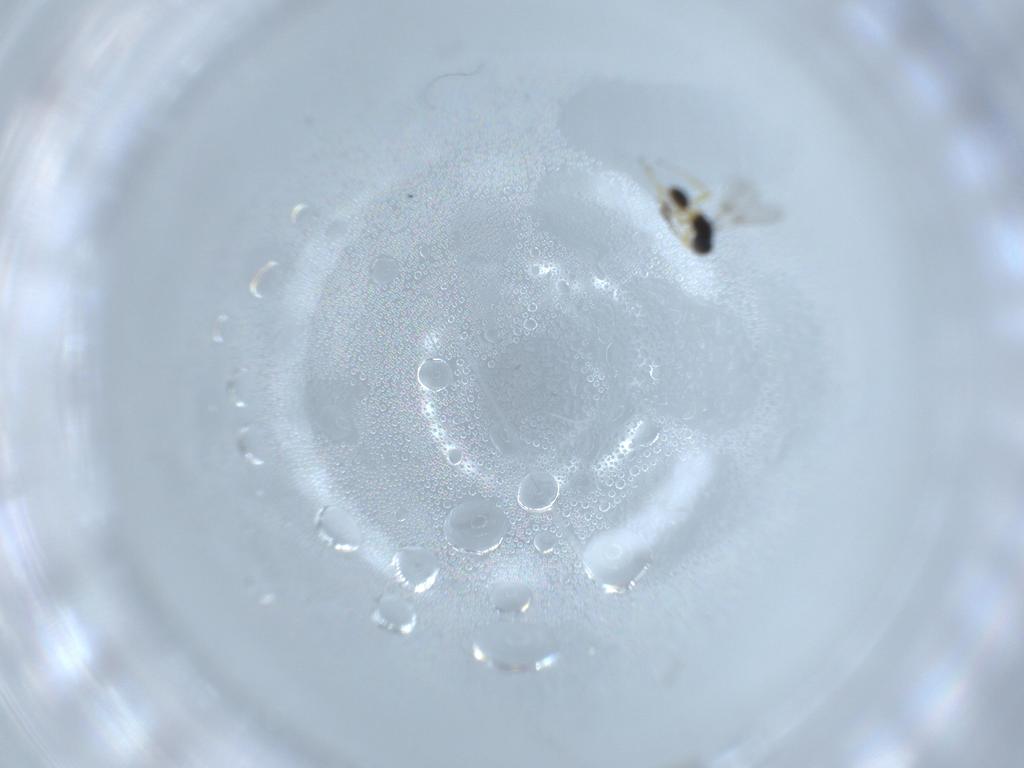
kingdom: Animalia
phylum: Arthropoda
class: Insecta
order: Hymenoptera
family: Mymaridae
